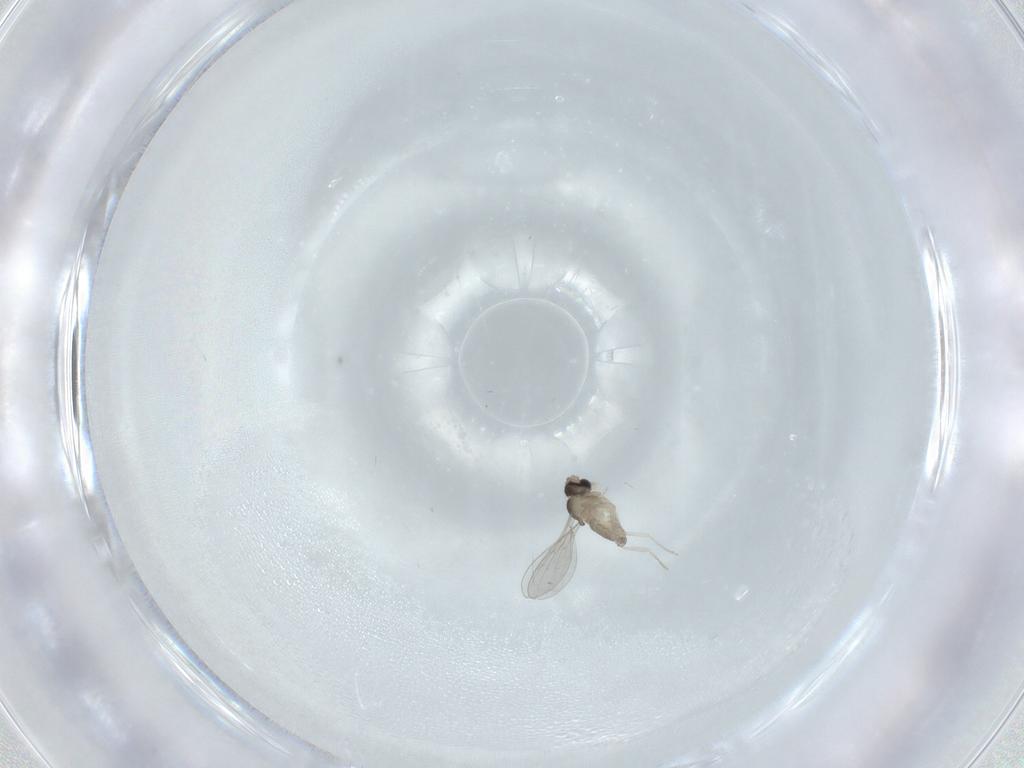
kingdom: Animalia
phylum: Arthropoda
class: Insecta
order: Diptera
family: Cecidomyiidae
